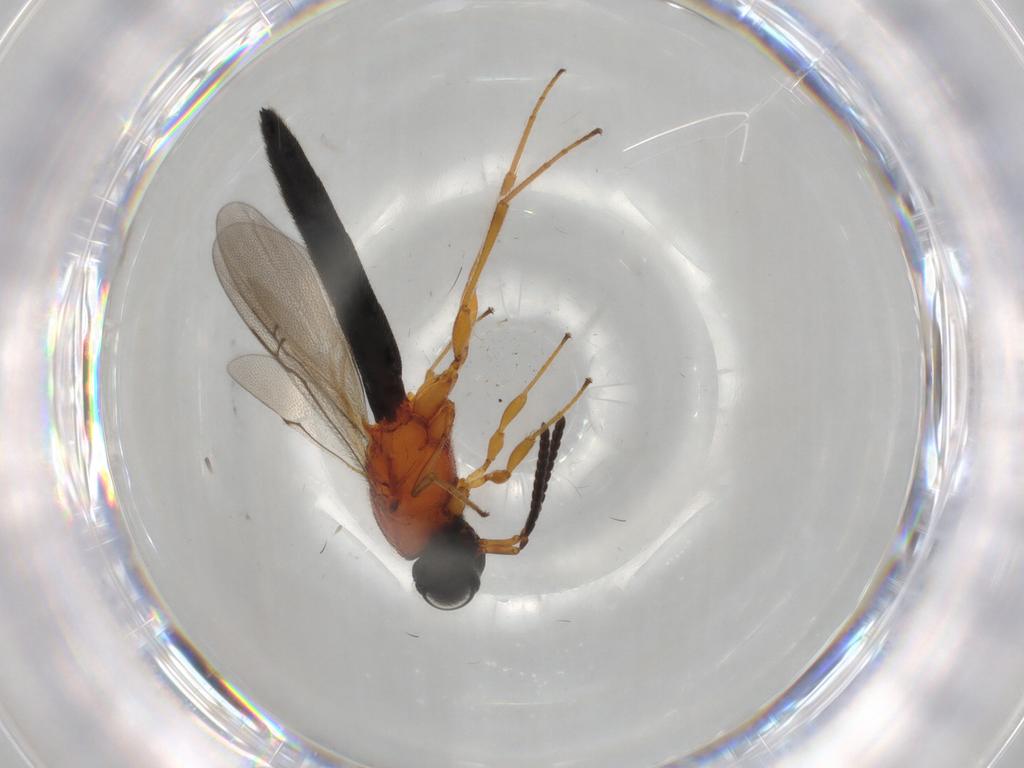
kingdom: Animalia
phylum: Arthropoda
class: Insecta
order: Hymenoptera
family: Scelionidae
